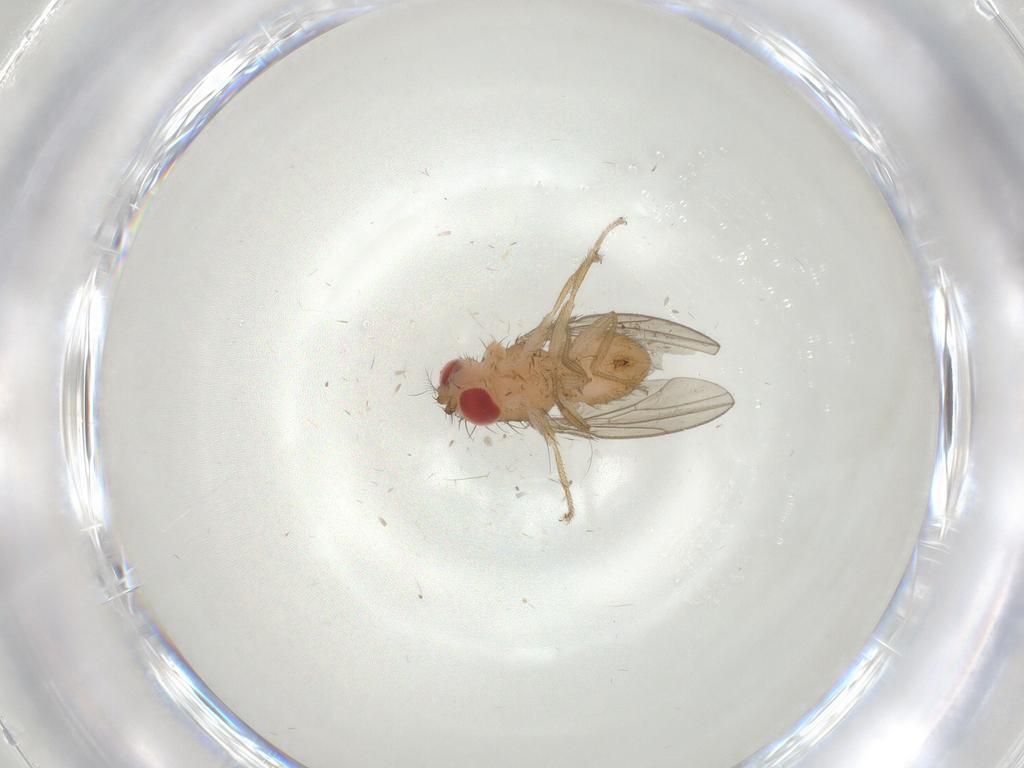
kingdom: Animalia
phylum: Arthropoda
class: Insecta
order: Diptera
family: Drosophilidae
